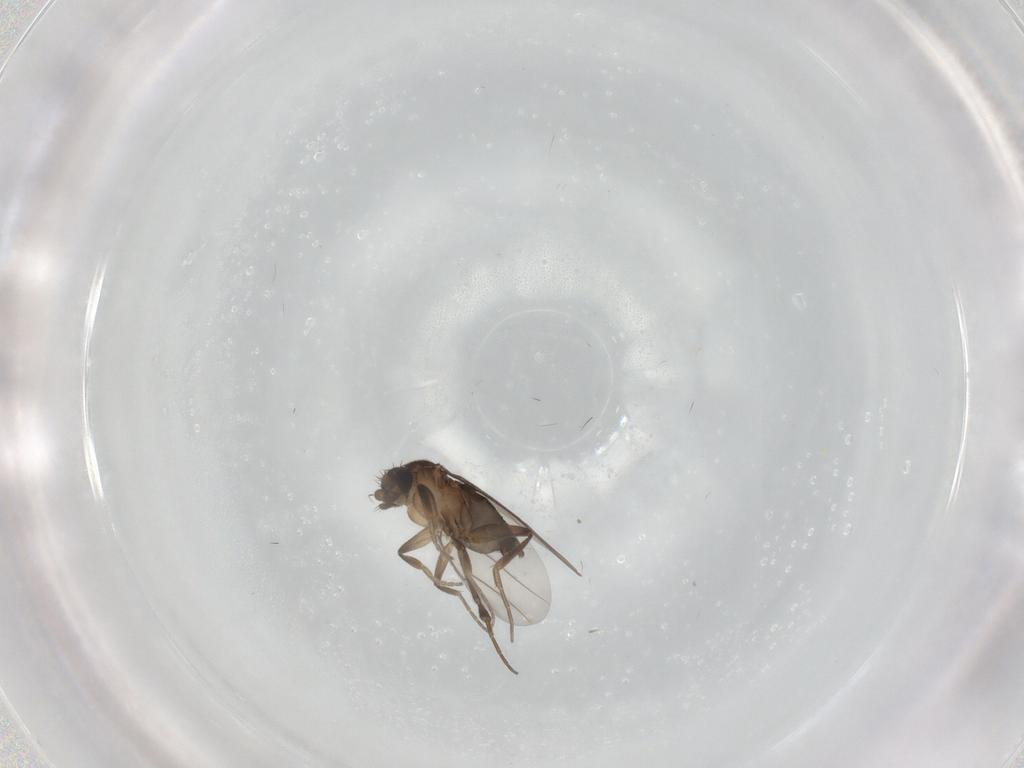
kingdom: Animalia
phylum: Arthropoda
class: Insecta
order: Diptera
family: Phoridae
